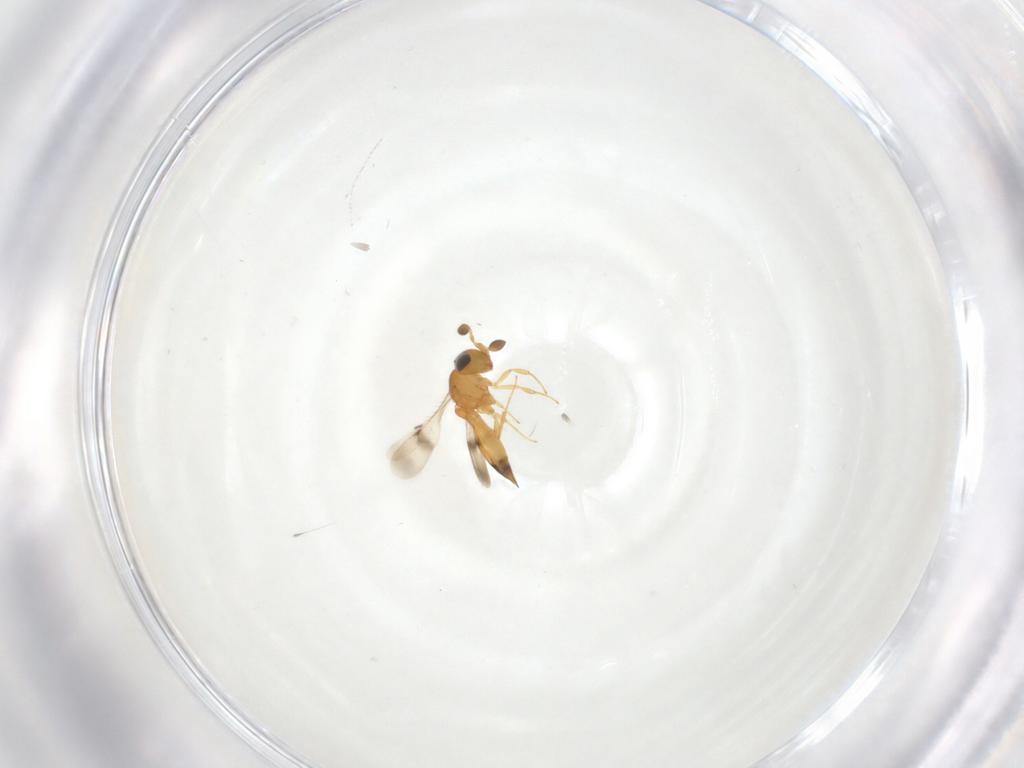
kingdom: Animalia
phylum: Arthropoda
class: Insecta
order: Hymenoptera
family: Scelionidae
